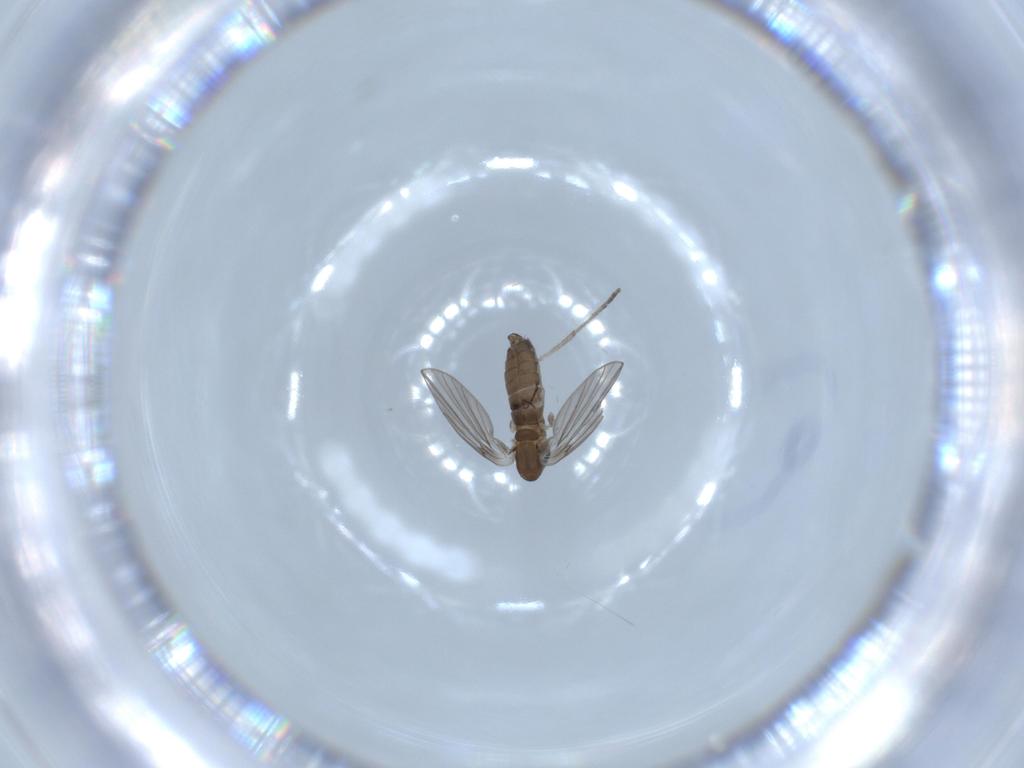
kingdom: Animalia
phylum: Arthropoda
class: Insecta
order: Diptera
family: Psychodidae
